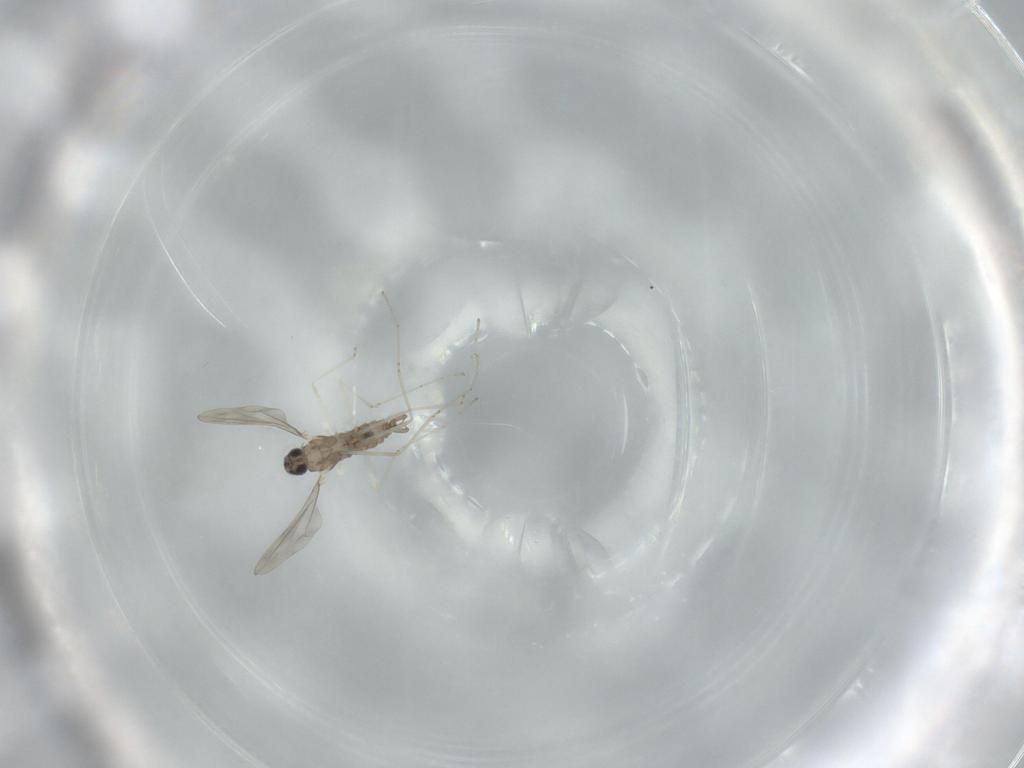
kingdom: Animalia
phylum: Arthropoda
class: Insecta
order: Diptera
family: Cecidomyiidae
